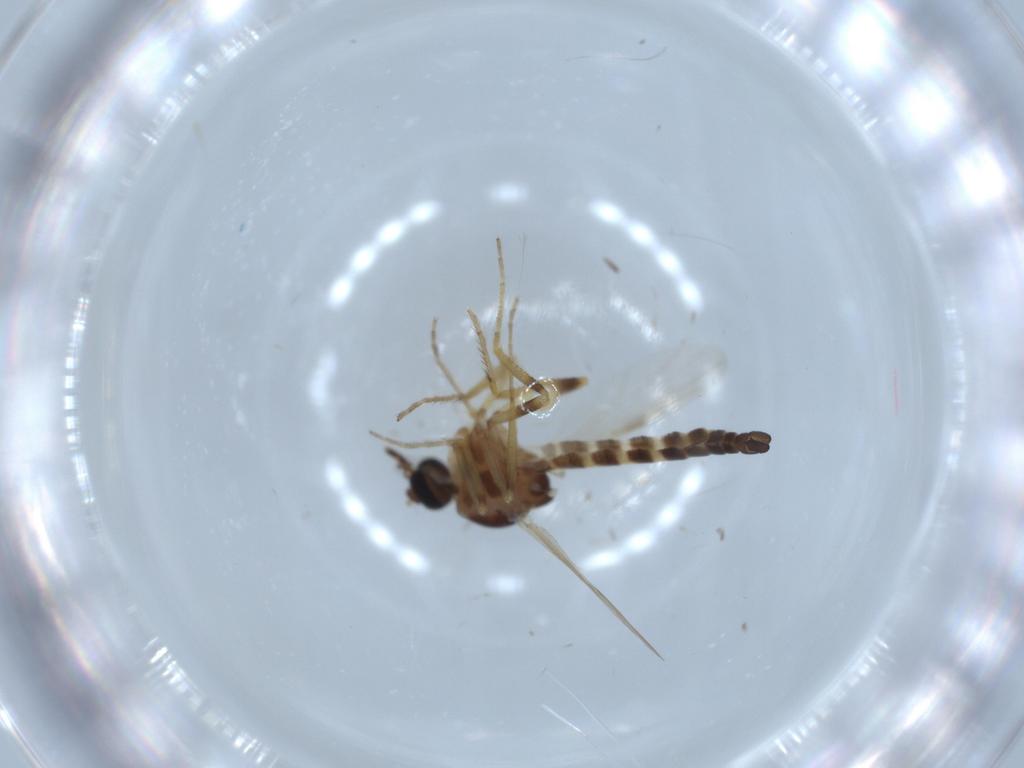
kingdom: Animalia
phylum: Arthropoda
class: Insecta
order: Diptera
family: Ceratopogonidae
